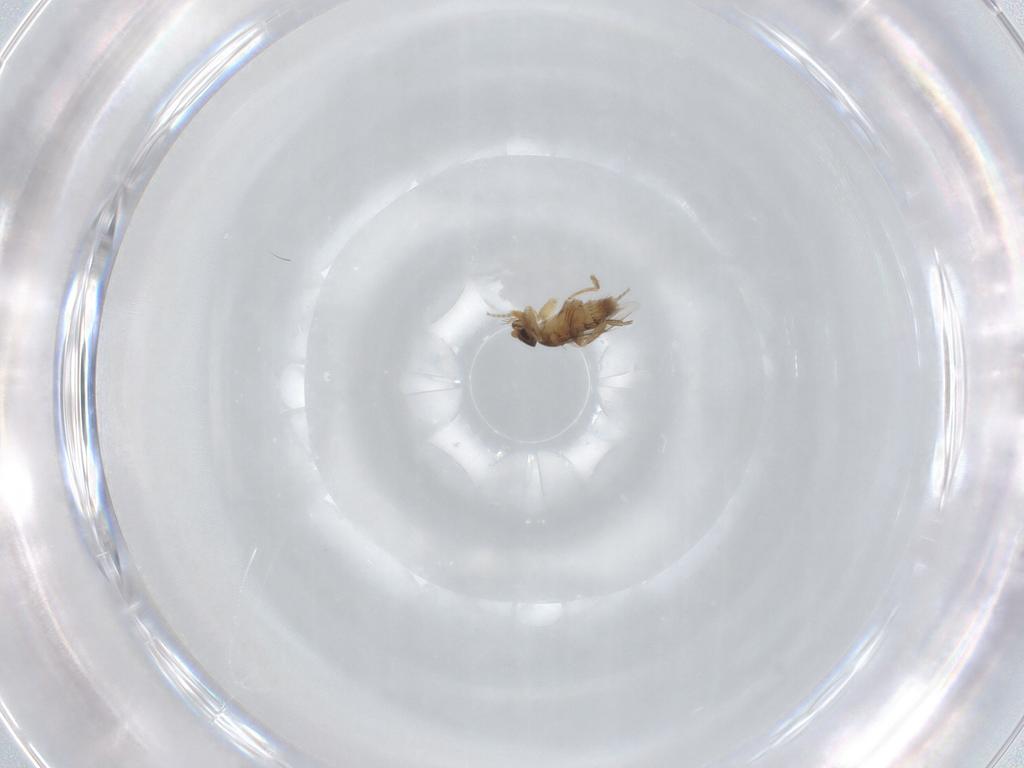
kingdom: Animalia
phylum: Arthropoda
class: Insecta
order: Diptera
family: Phoridae
